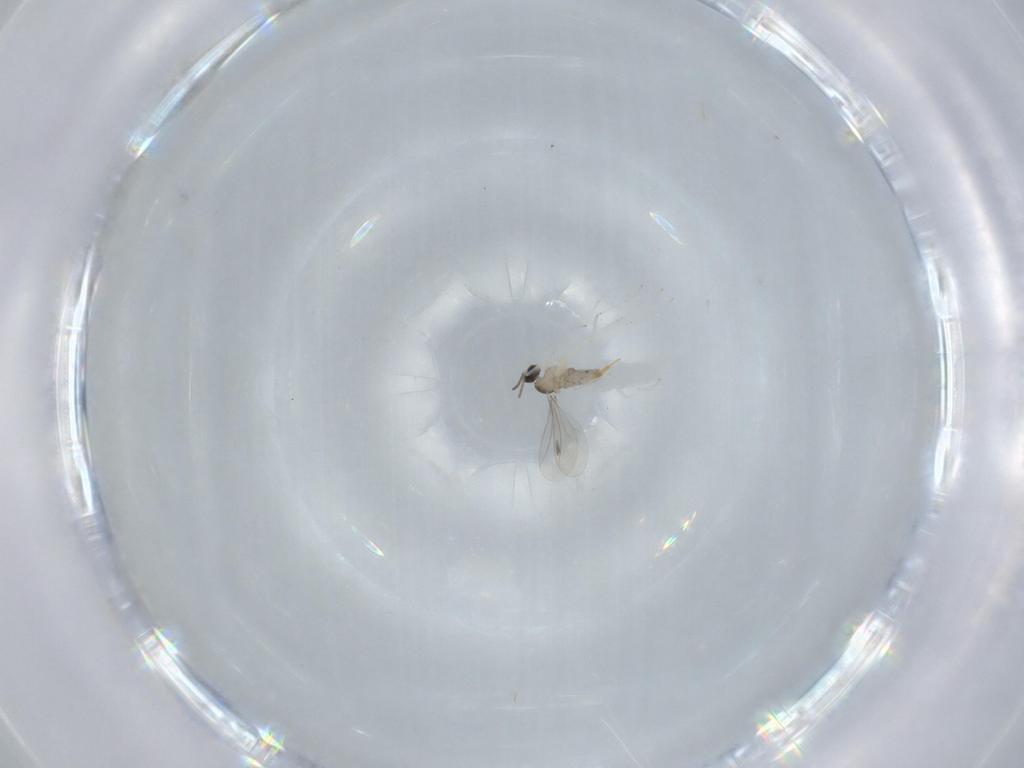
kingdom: Animalia
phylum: Arthropoda
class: Insecta
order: Diptera
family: Cecidomyiidae
